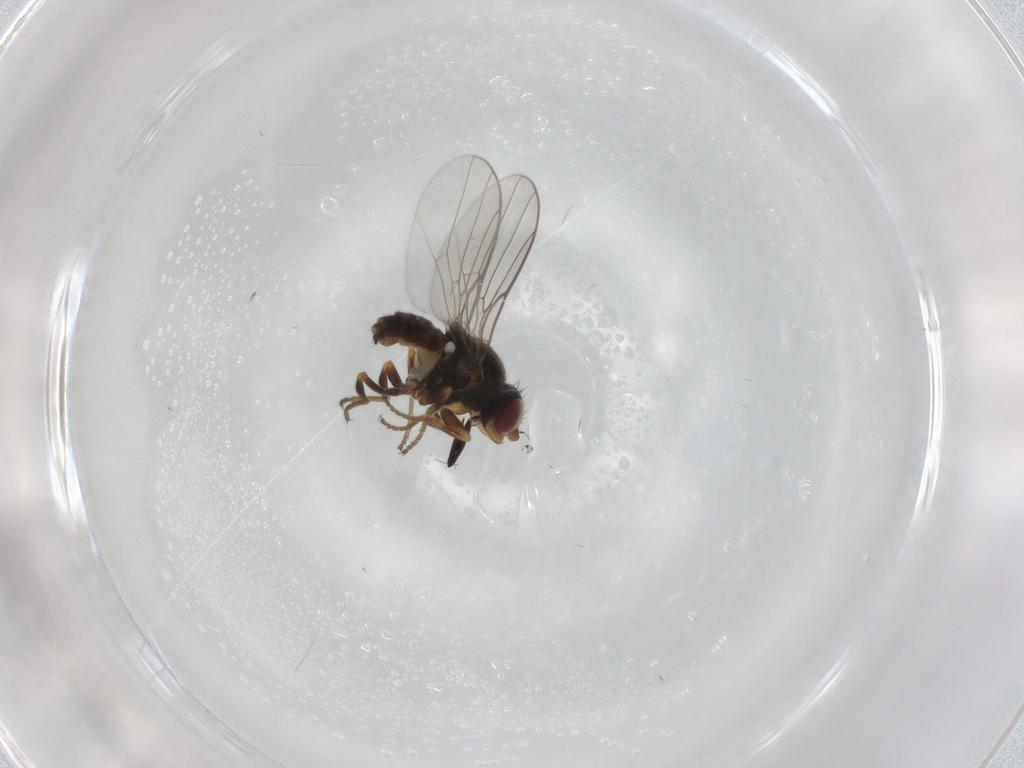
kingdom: Animalia
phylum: Arthropoda
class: Insecta
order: Diptera
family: Chloropidae
